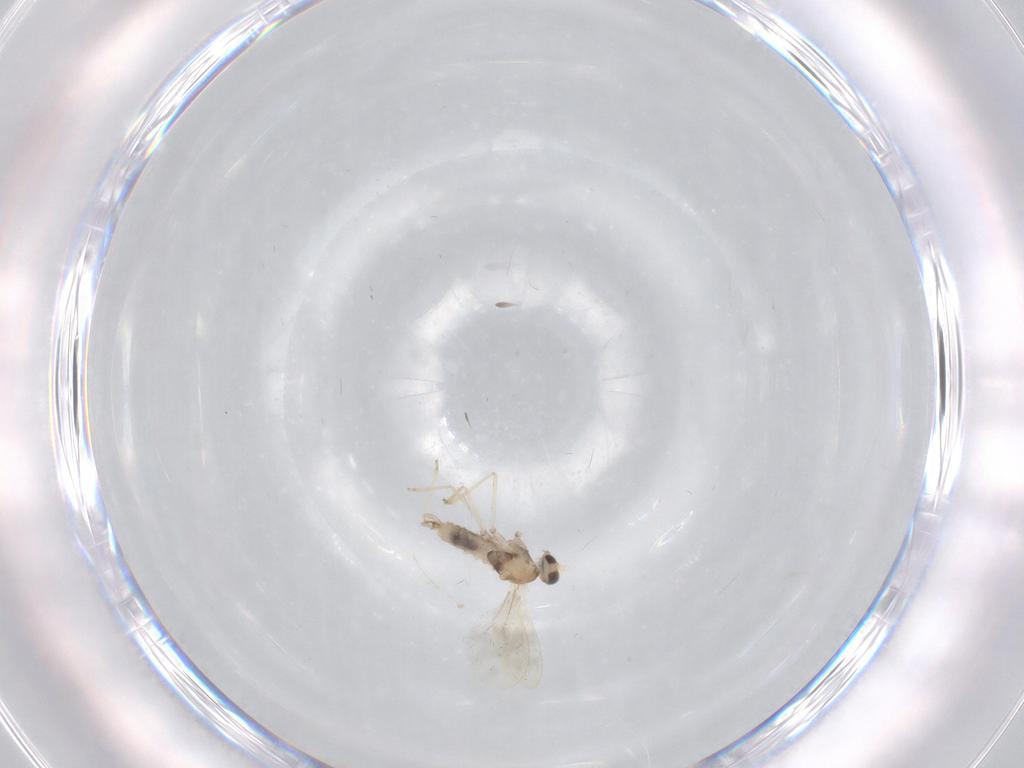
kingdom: Animalia
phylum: Arthropoda
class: Insecta
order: Diptera
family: Cecidomyiidae
